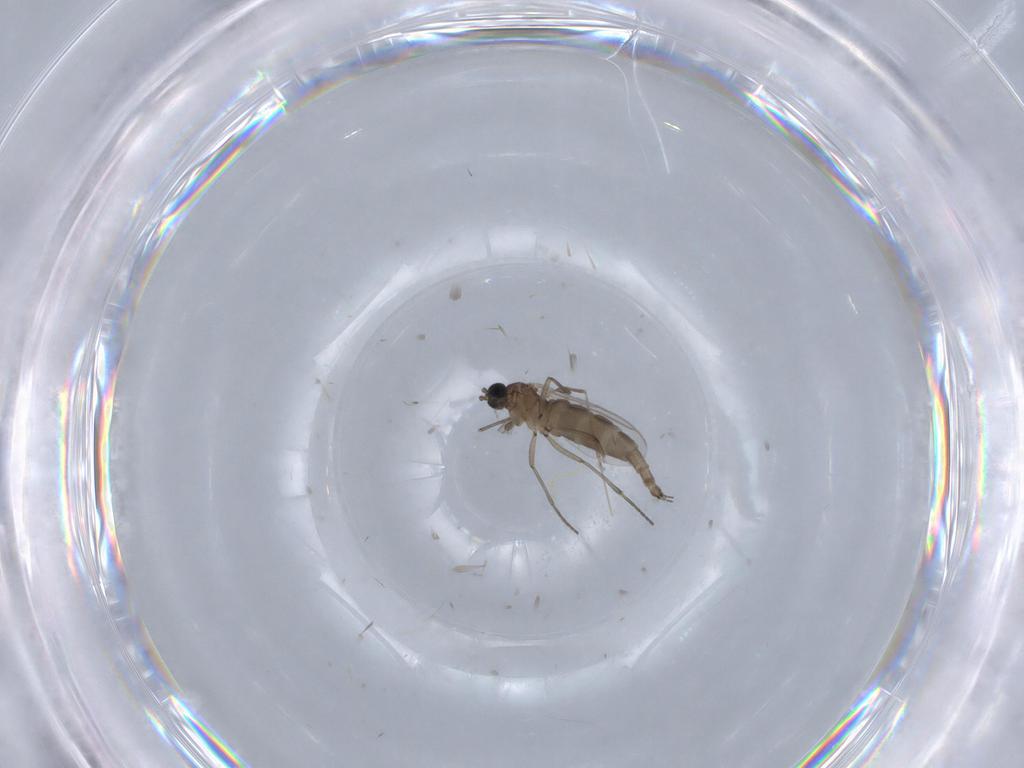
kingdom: Animalia
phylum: Arthropoda
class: Insecta
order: Diptera
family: Cecidomyiidae
